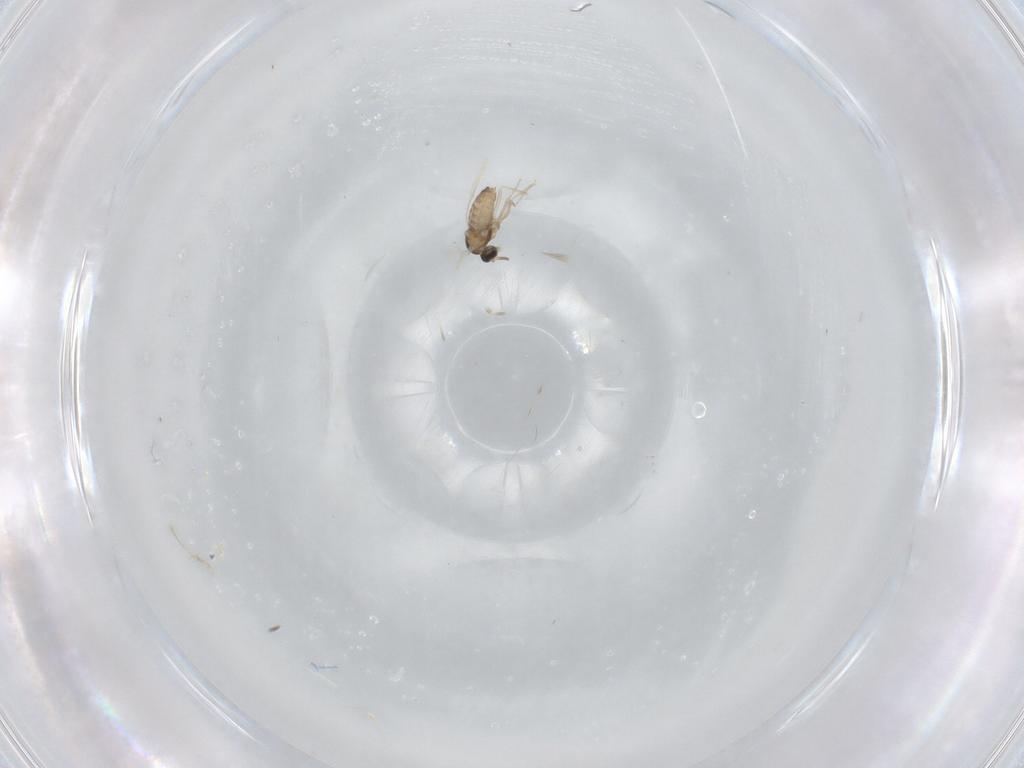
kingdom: Animalia
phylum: Arthropoda
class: Insecta
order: Diptera
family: Cecidomyiidae
